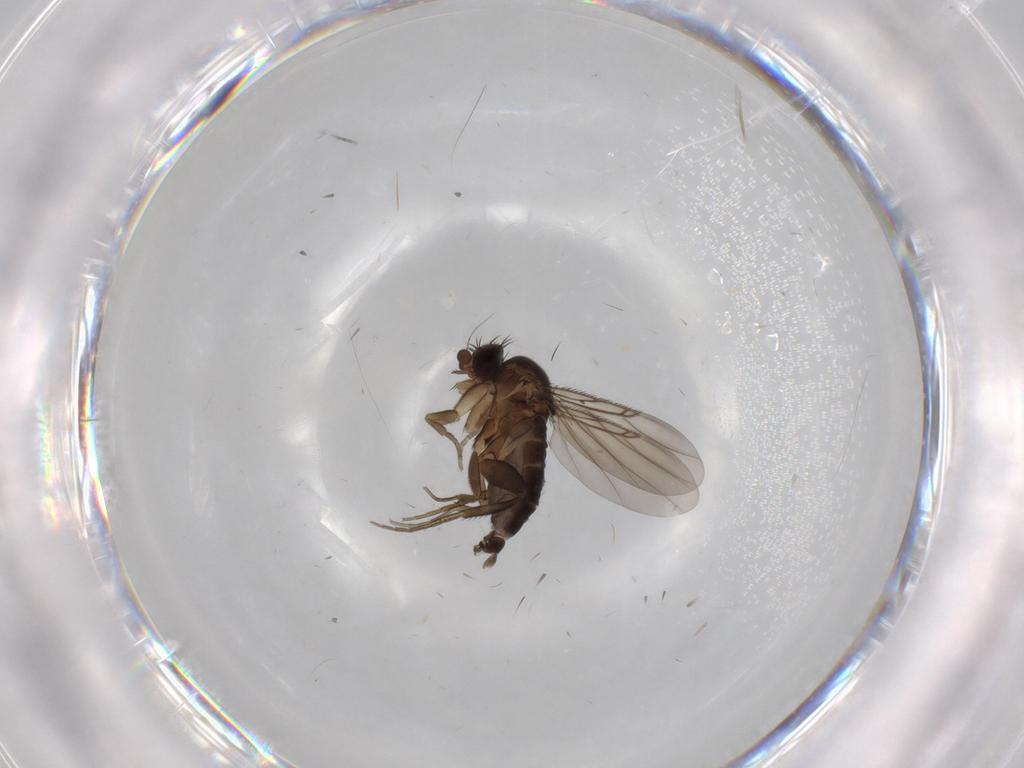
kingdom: Animalia
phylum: Arthropoda
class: Insecta
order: Diptera
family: Phoridae
